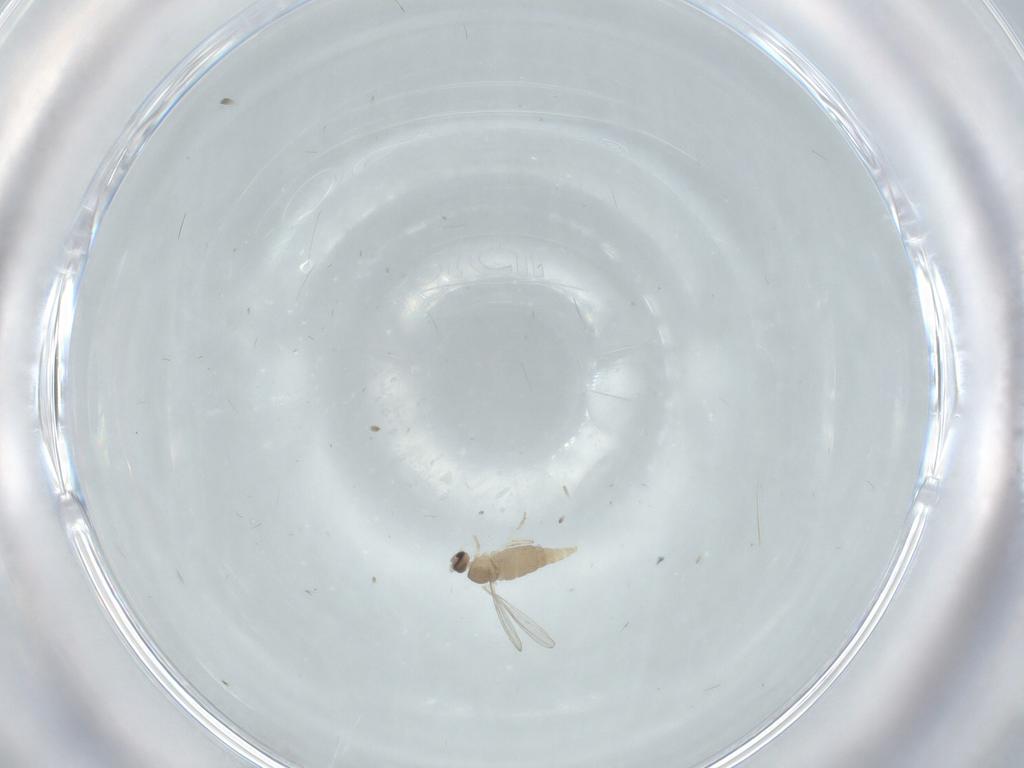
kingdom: Animalia
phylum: Arthropoda
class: Insecta
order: Diptera
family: Cecidomyiidae
